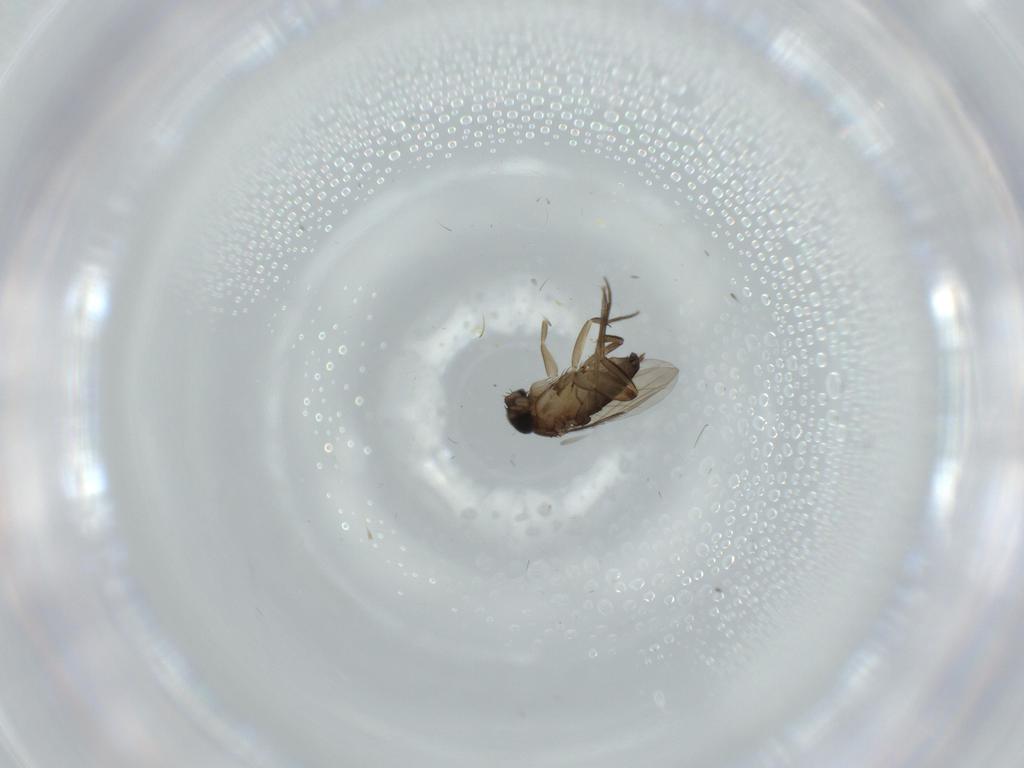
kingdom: Animalia
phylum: Arthropoda
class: Insecta
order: Diptera
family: Phoridae
